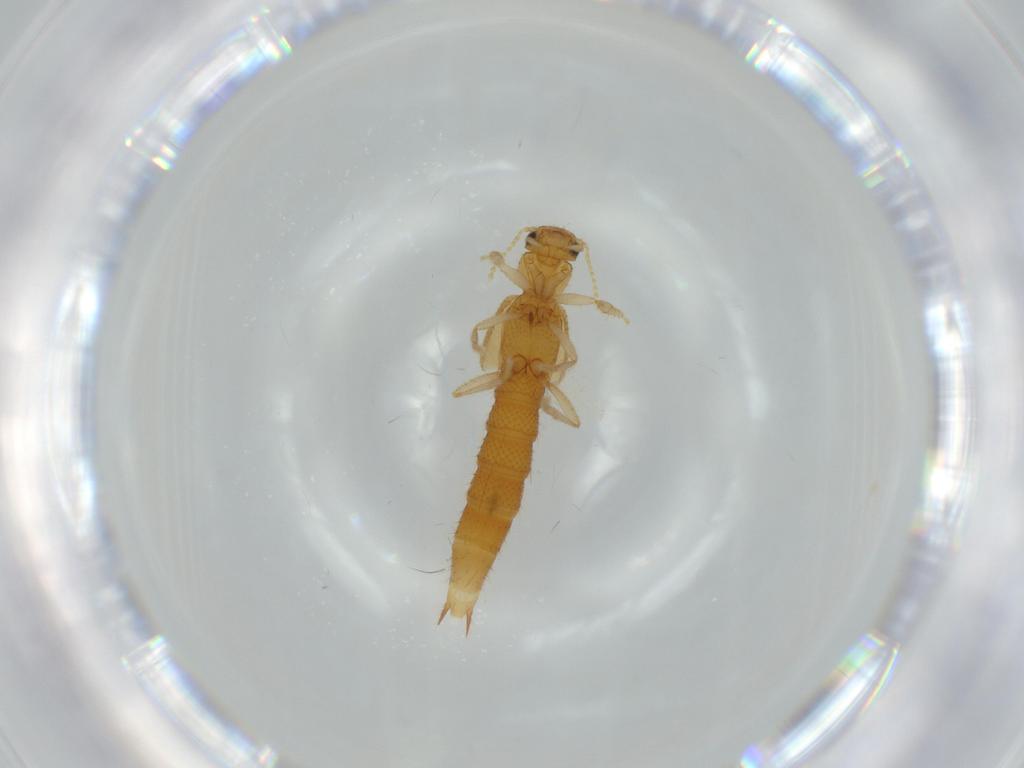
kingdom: Animalia
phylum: Arthropoda
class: Insecta
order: Coleoptera
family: Staphylinidae
